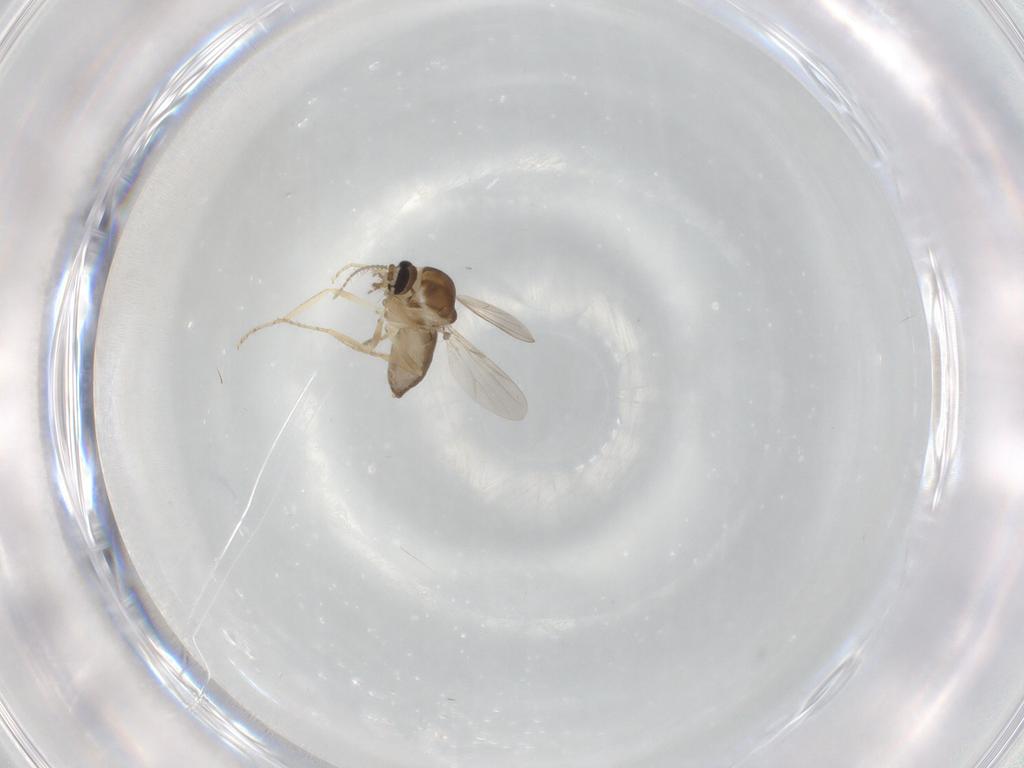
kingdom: Animalia
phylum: Arthropoda
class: Insecta
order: Diptera
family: Ceratopogonidae
